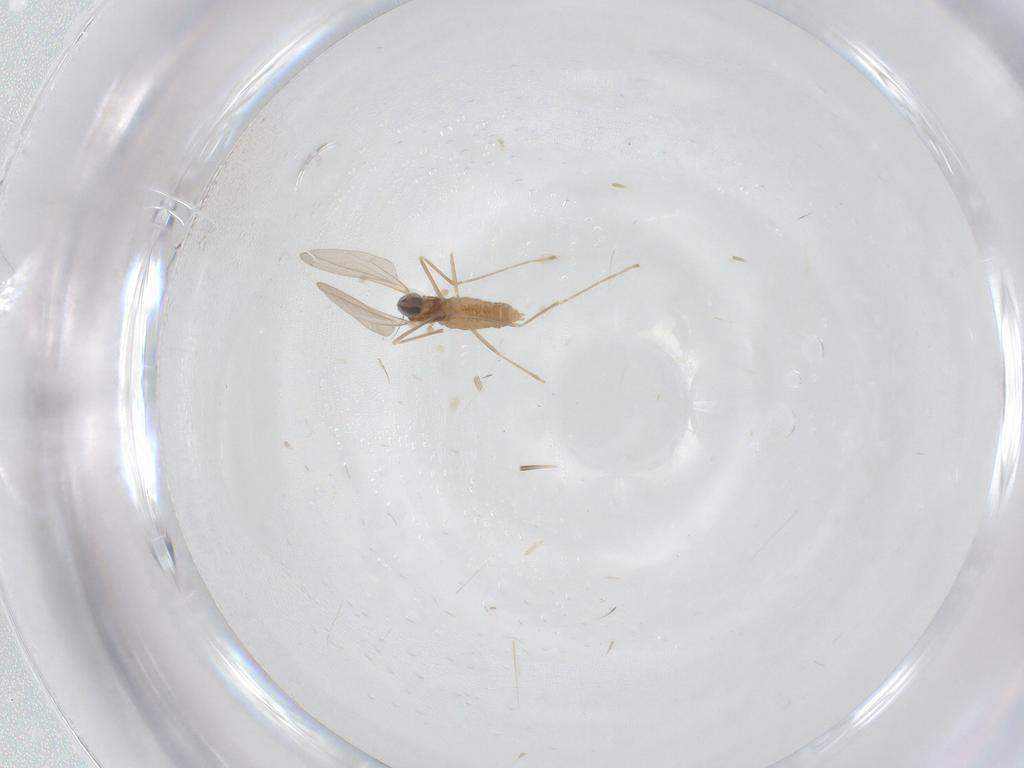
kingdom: Animalia
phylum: Arthropoda
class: Insecta
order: Diptera
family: Cecidomyiidae
